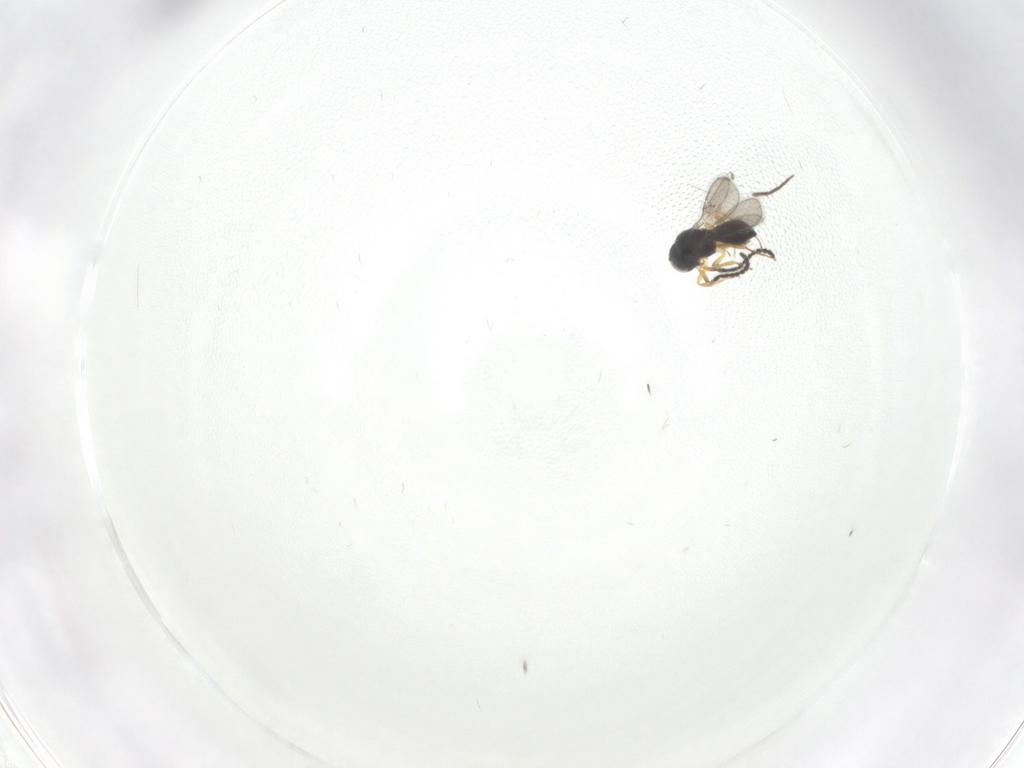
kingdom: Animalia
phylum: Arthropoda
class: Insecta
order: Hymenoptera
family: Scelionidae
